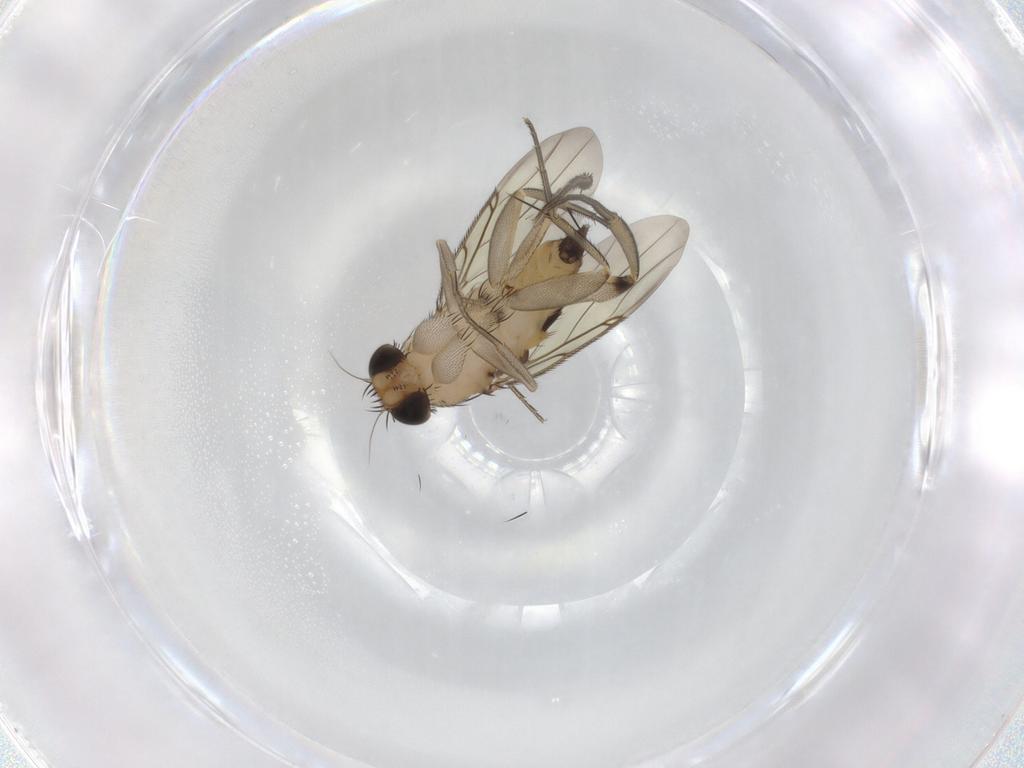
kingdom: Animalia
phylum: Arthropoda
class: Insecta
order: Diptera
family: Phoridae
